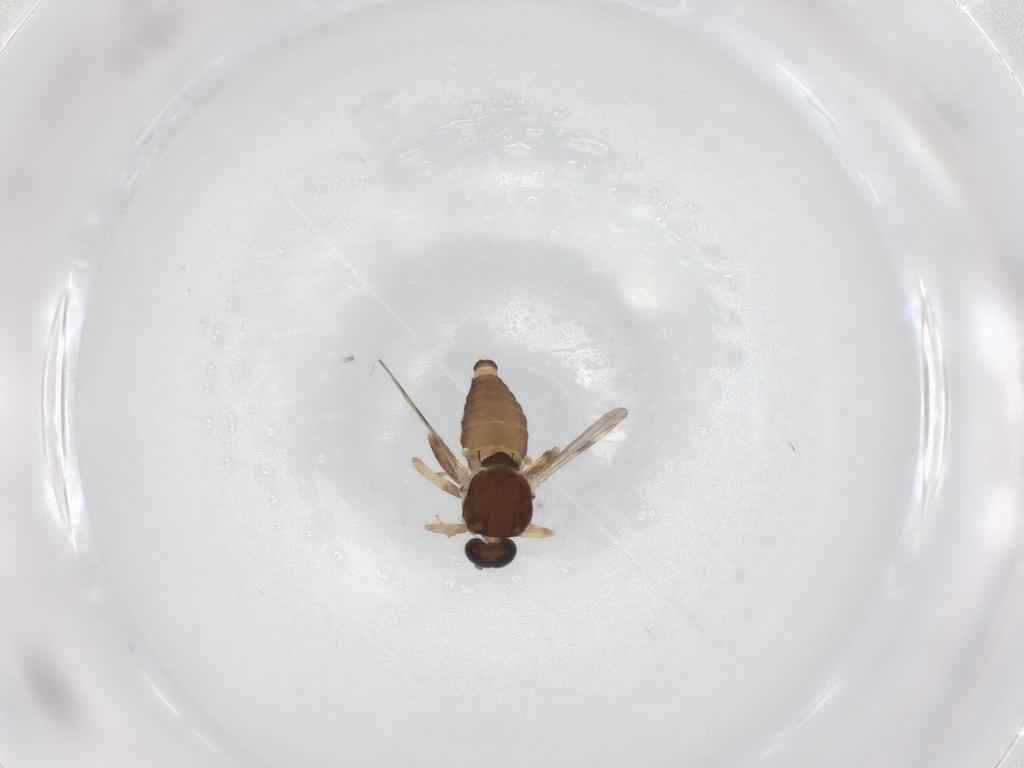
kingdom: Animalia
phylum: Arthropoda
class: Insecta
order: Diptera
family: Ceratopogonidae
